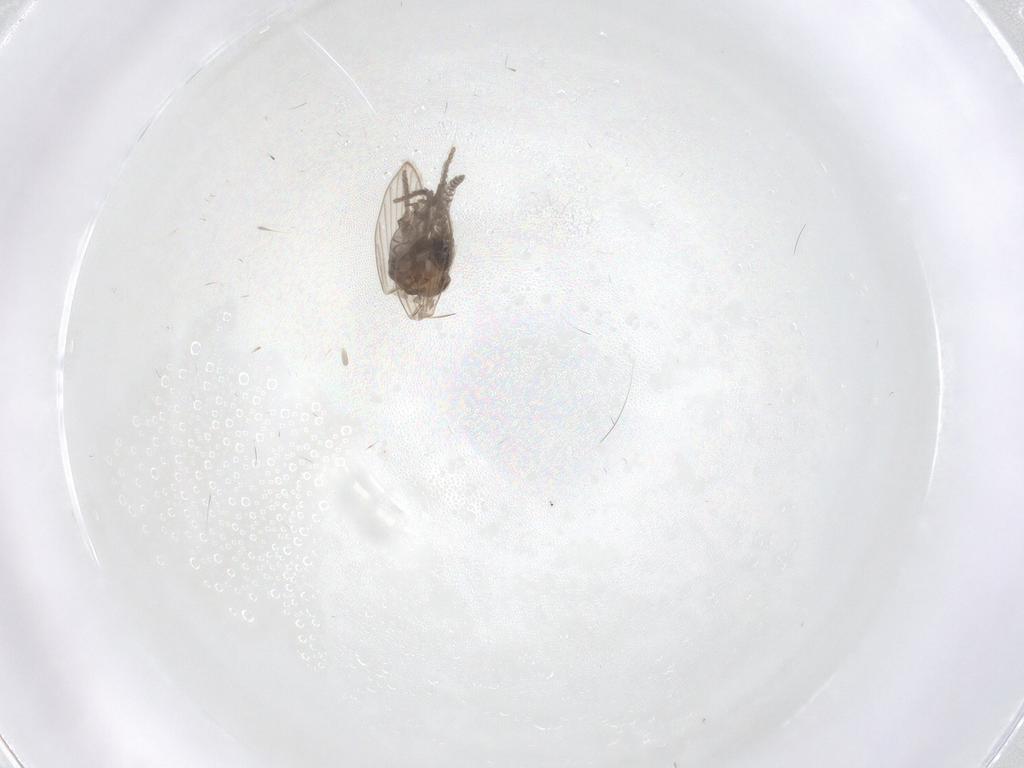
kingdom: Animalia
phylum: Arthropoda
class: Insecta
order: Diptera
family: Psychodidae
